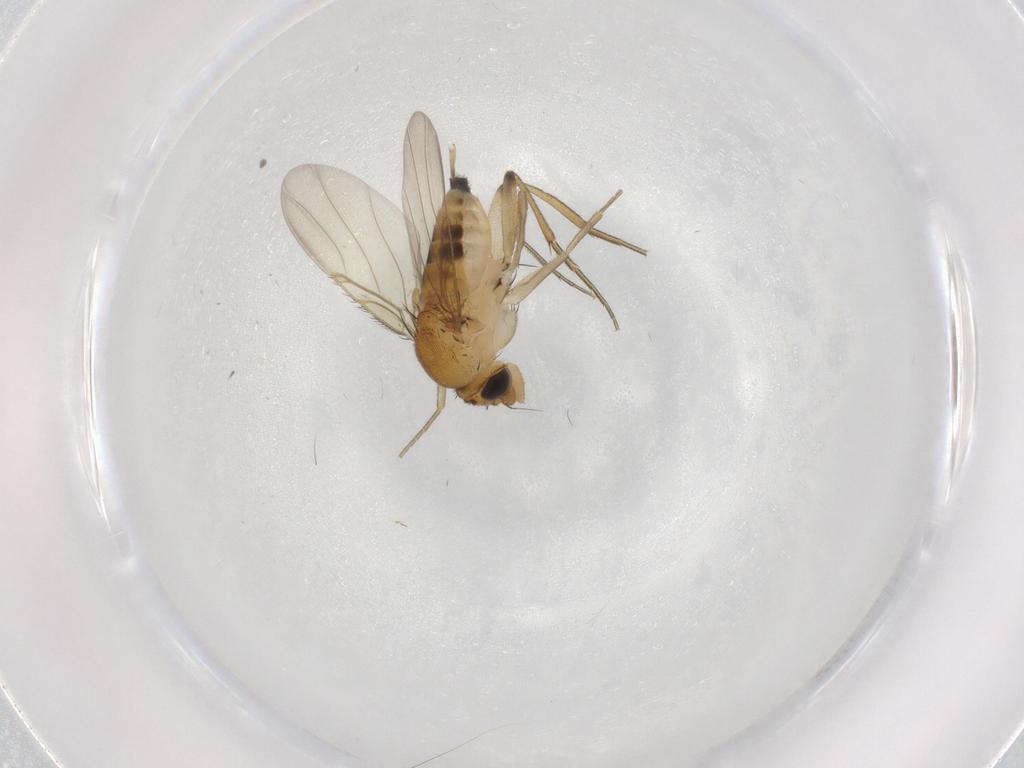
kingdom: Animalia
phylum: Arthropoda
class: Insecta
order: Diptera
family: Phoridae
